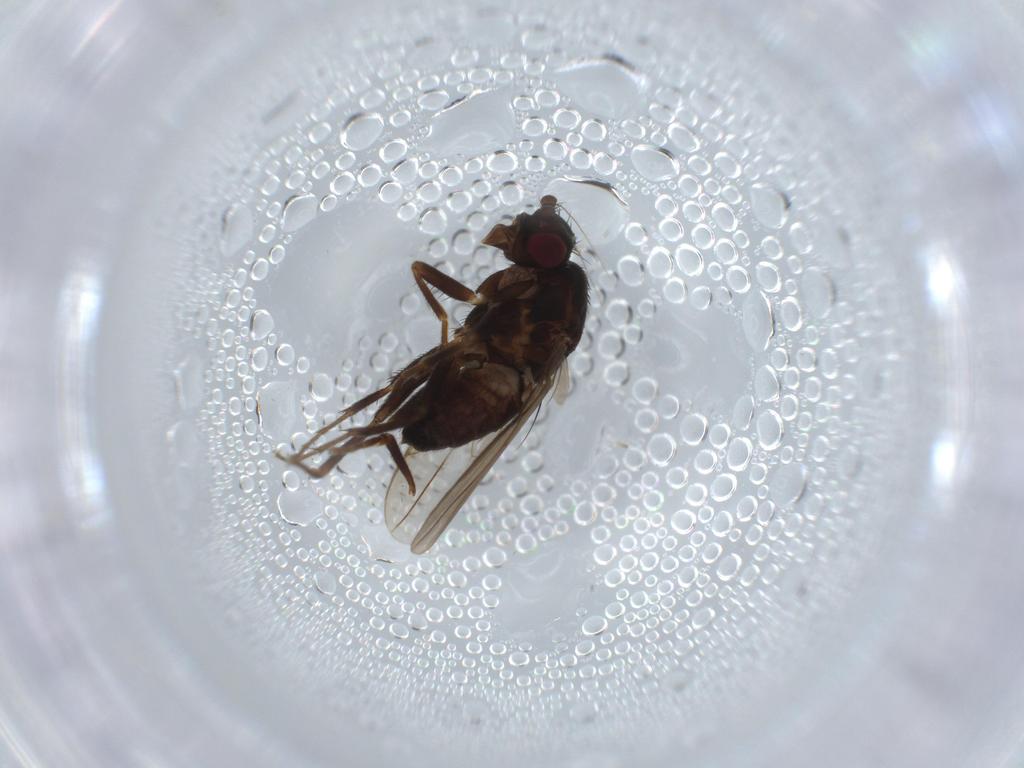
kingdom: Animalia
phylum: Arthropoda
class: Insecta
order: Diptera
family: Sphaeroceridae
